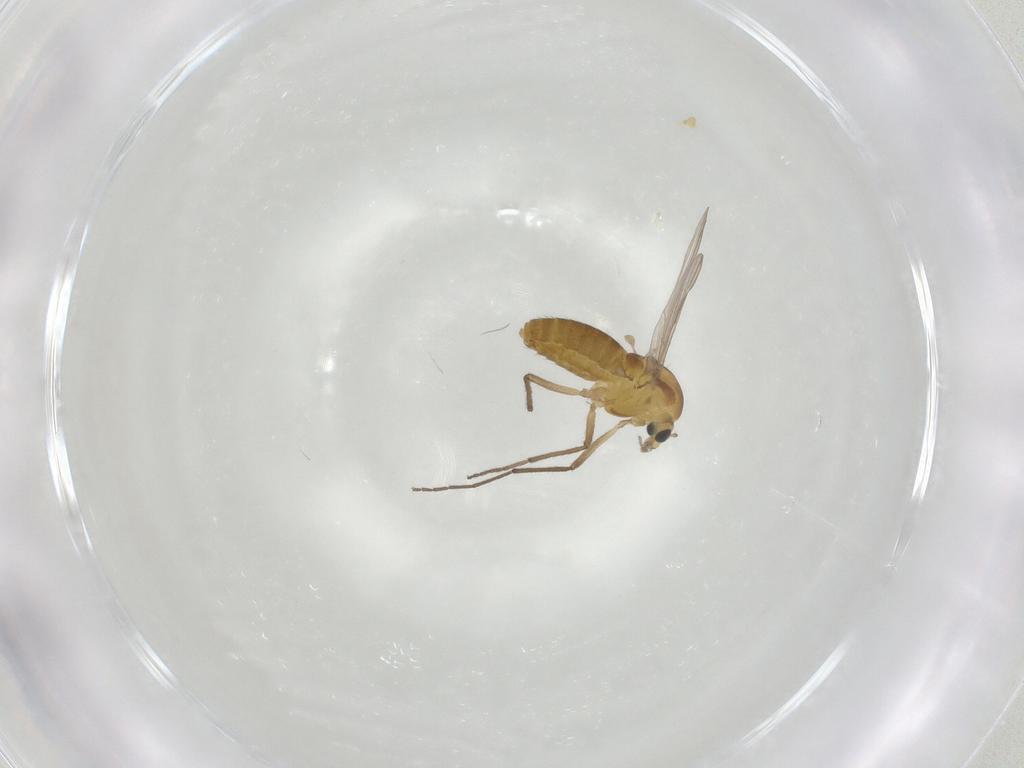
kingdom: Animalia
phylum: Arthropoda
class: Insecta
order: Diptera
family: Chironomidae
